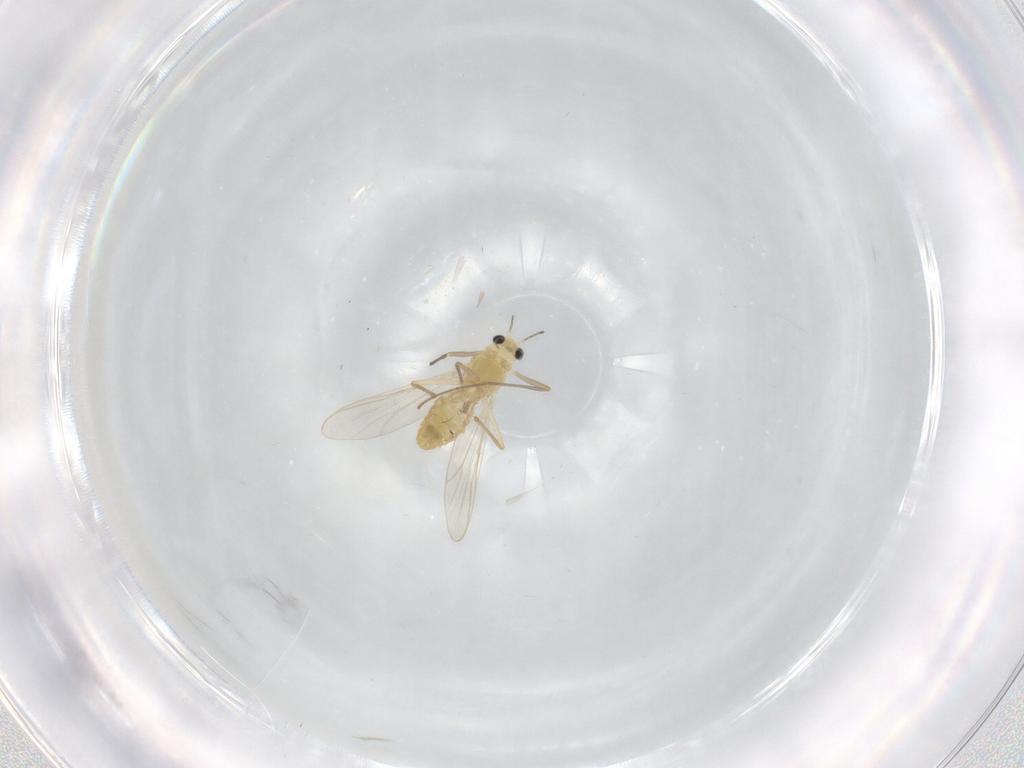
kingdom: Animalia
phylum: Arthropoda
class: Insecta
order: Diptera
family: Chironomidae
